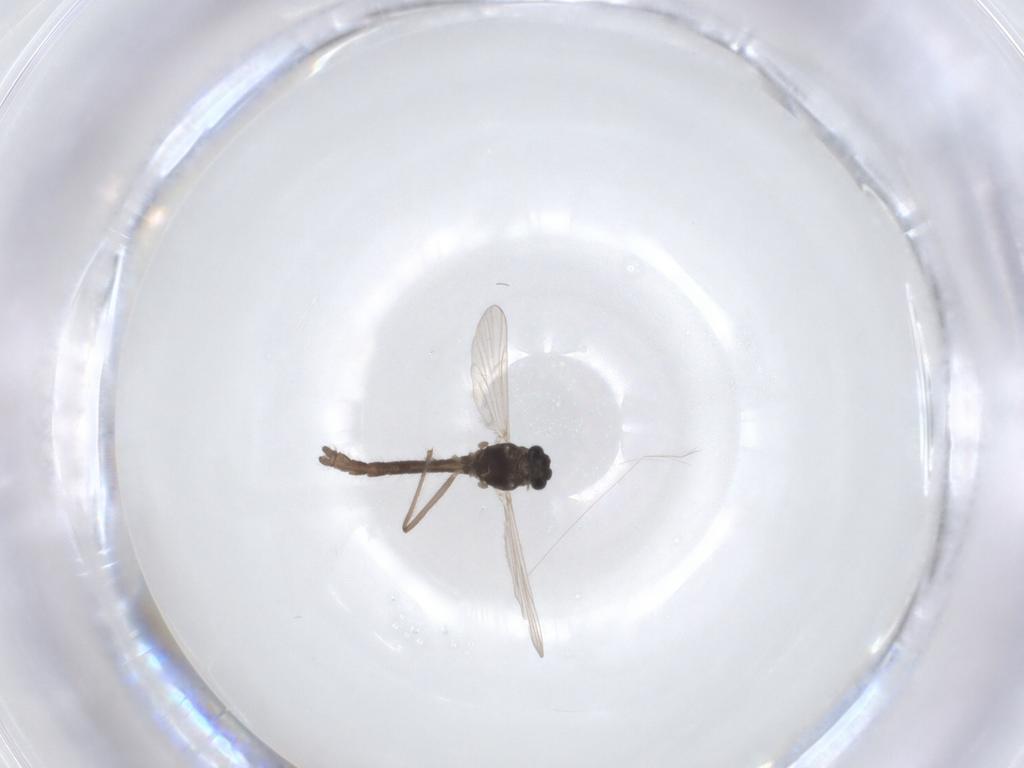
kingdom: Animalia
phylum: Arthropoda
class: Insecta
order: Diptera
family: Chironomidae
